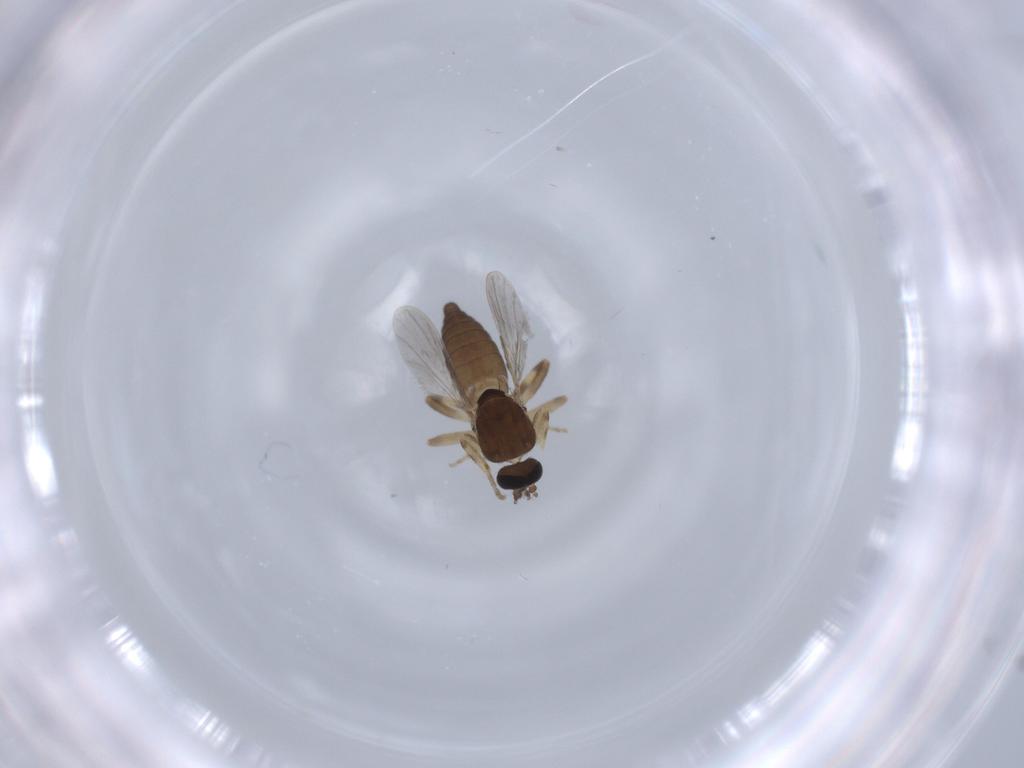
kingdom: Animalia
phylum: Arthropoda
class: Insecta
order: Diptera
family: Ceratopogonidae
